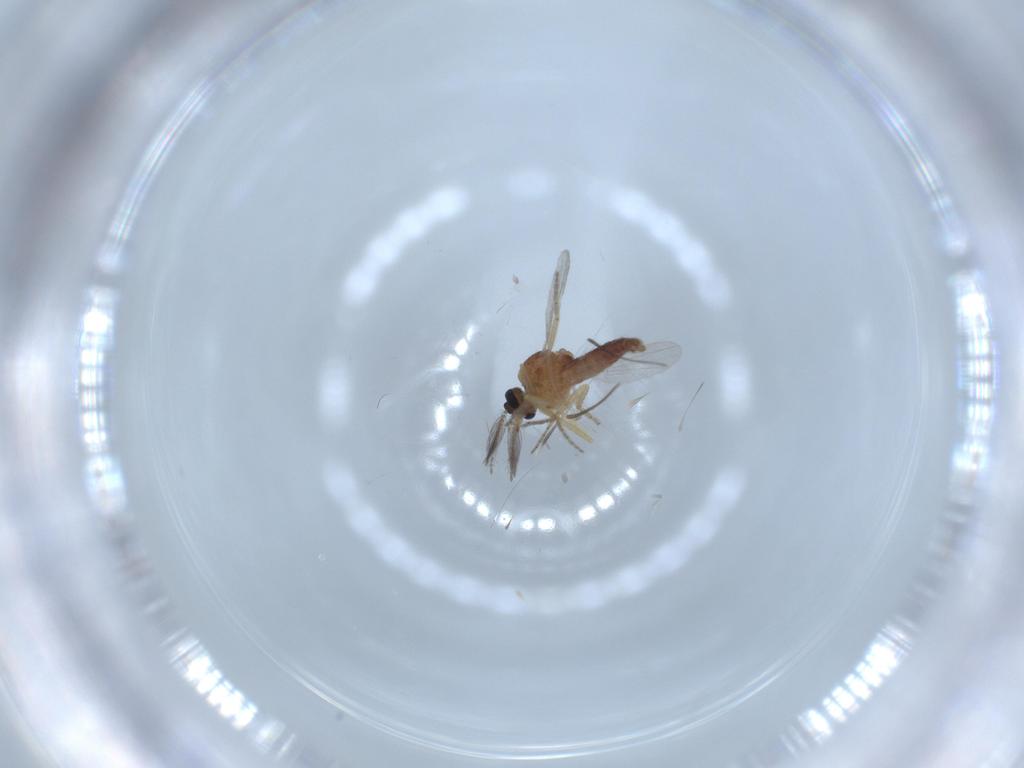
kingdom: Animalia
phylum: Arthropoda
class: Insecta
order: Diptera
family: Ceratopogonidae
